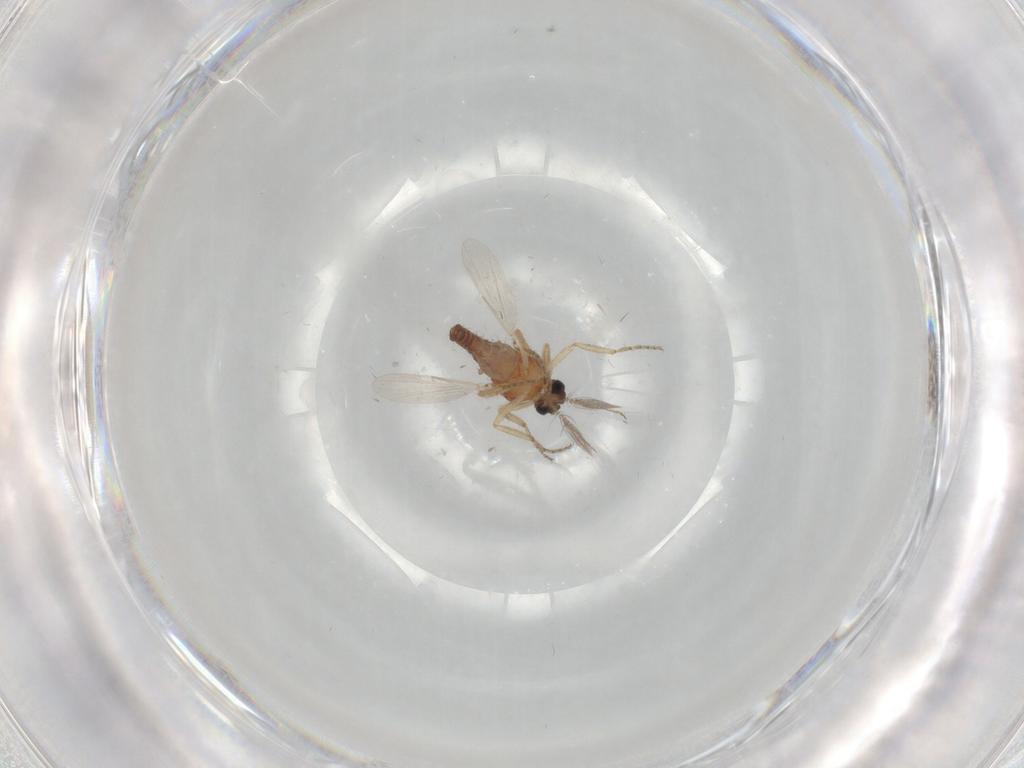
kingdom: Animalia
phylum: Arthropoda
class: Insecta
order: Diptera
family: Ceratopogonidae
